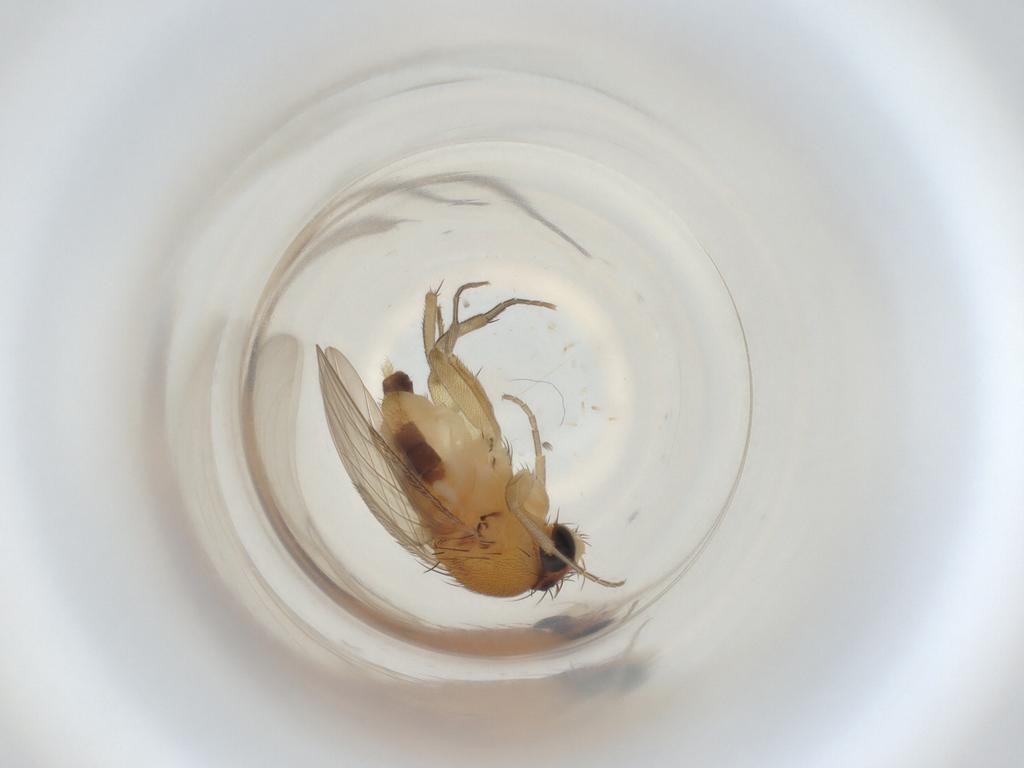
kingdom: Animalia
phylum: Arthropoda
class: Insecta
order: Diptera
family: Phoridae
